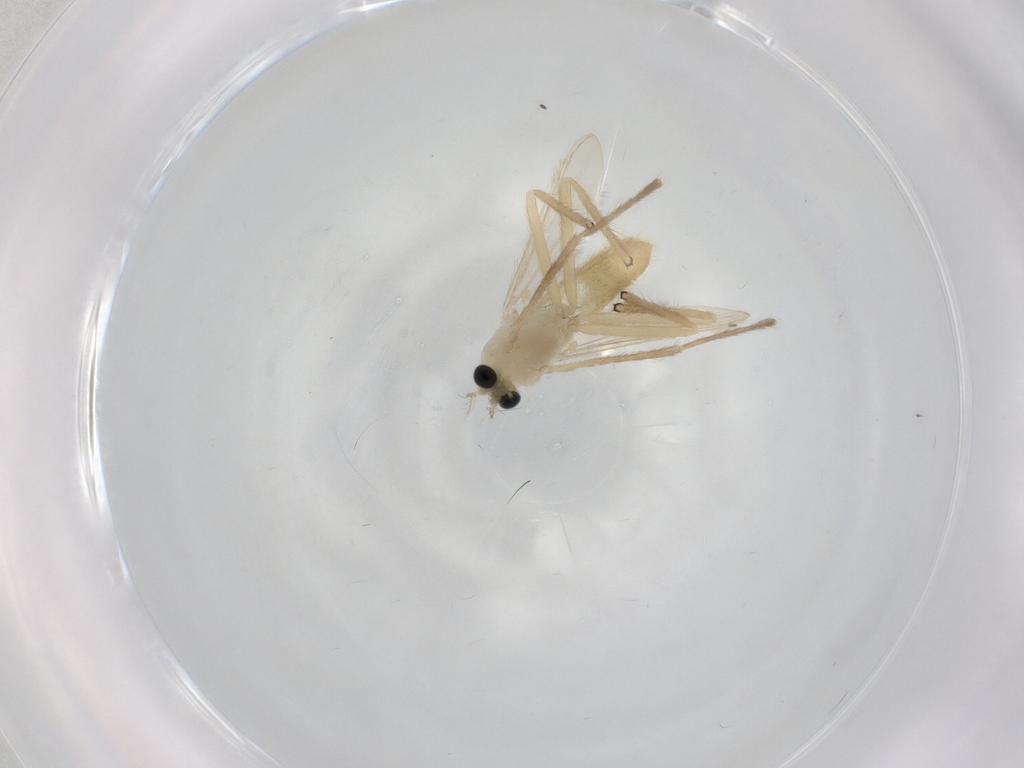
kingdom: Animalia
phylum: Arthropoda
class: Insecta
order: Diptera
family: Chironomidae
